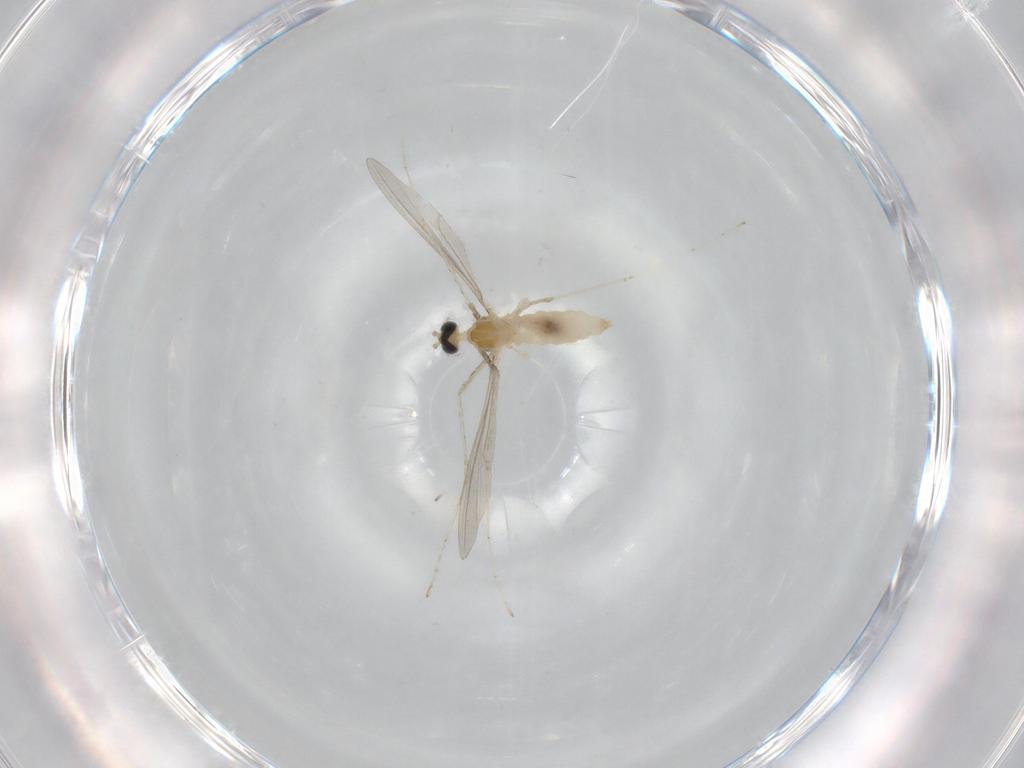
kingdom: Animalia
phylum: Arthropoda
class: Insecta
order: Diptera
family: Cecidomyiidae
